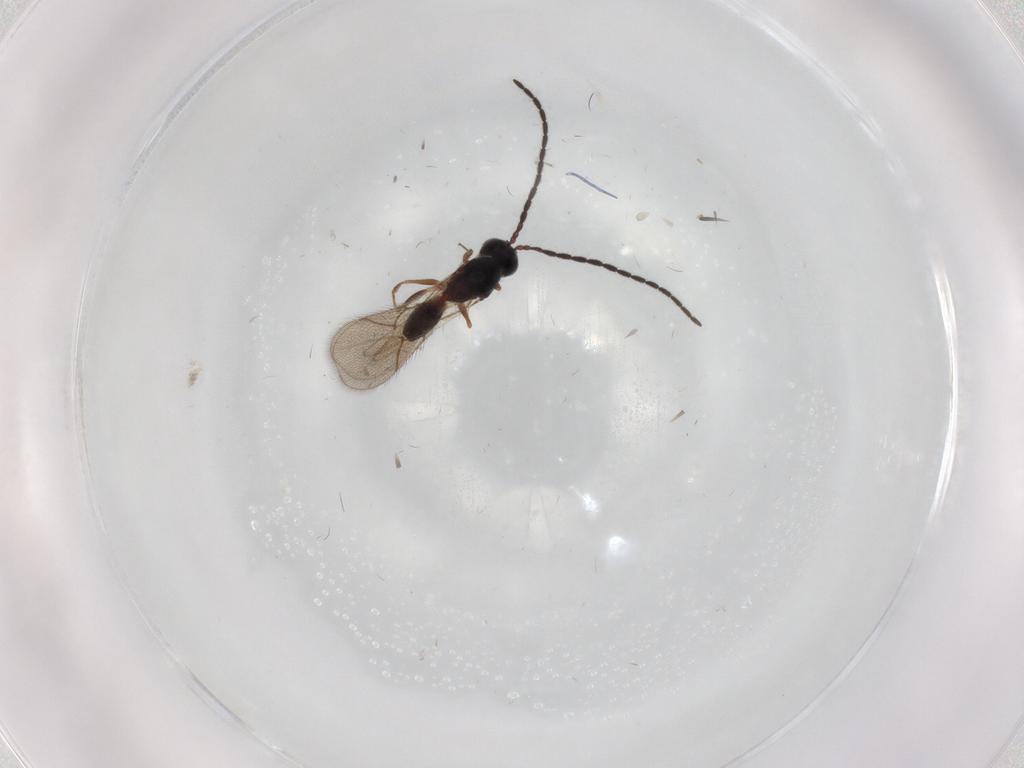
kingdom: Animalia
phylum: Arthropoda
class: Insecta
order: Hymenoptera
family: Figitidae
